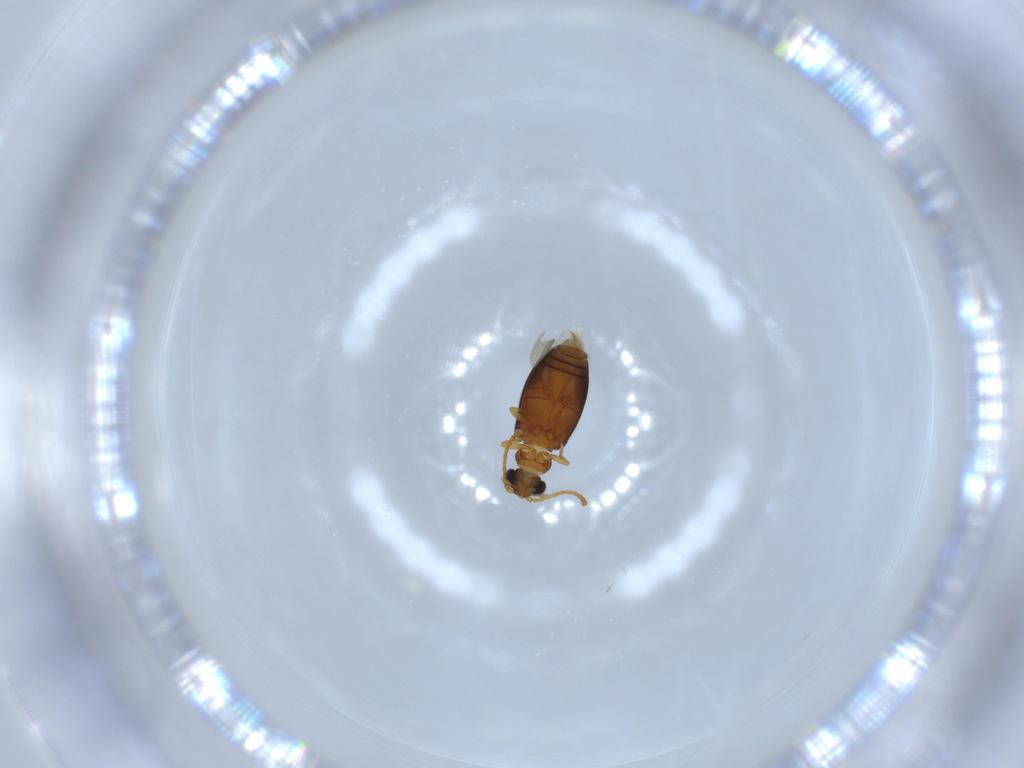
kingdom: Animalia
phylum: Arthropoda
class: Insecta
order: Coleoptera
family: Aderidae
